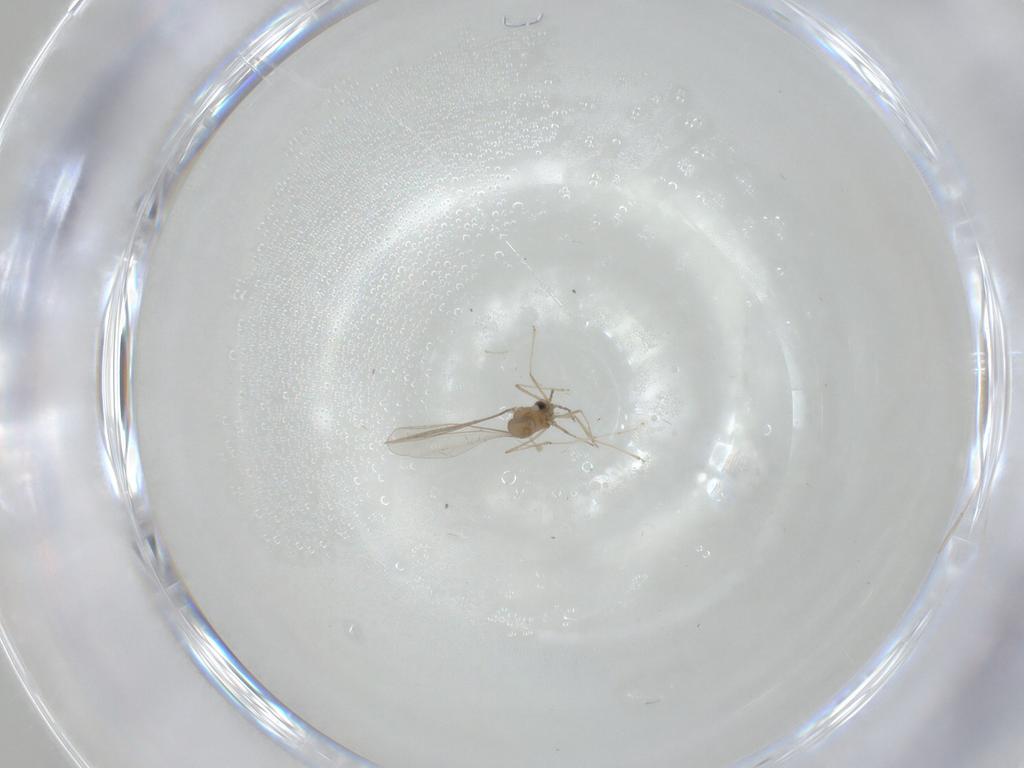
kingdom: Animalia
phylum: Arthropoda
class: Insecta
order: Diptera
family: Cecidomyiidae
